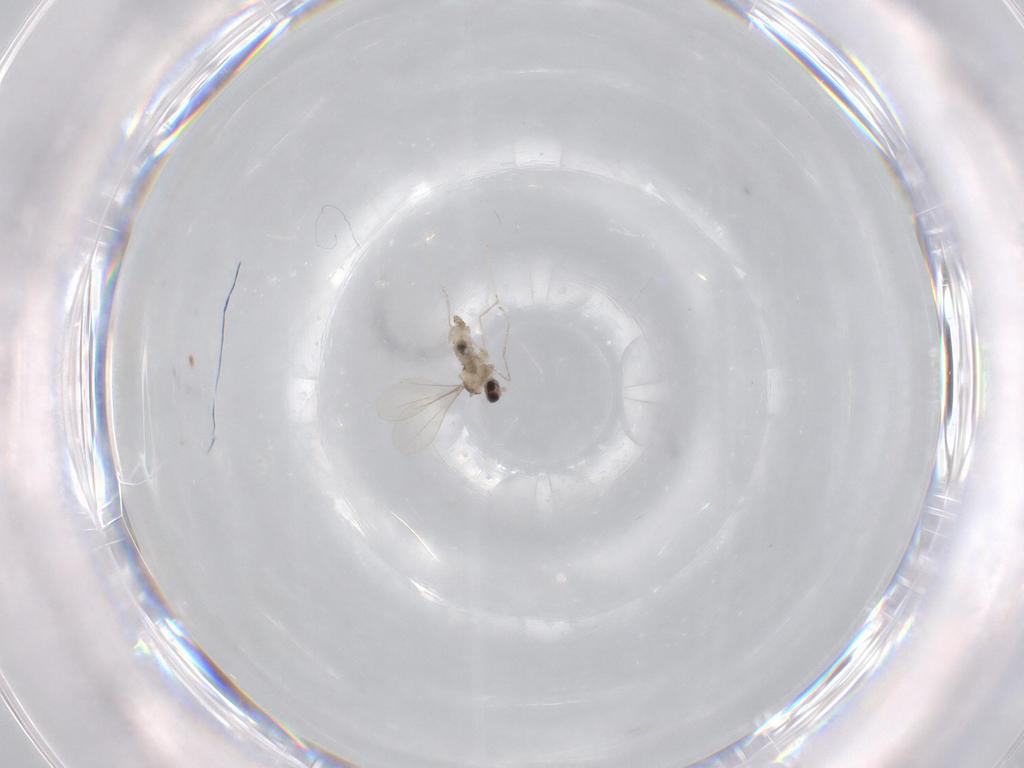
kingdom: Animalia
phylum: Arthropoda
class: Insecta
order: Diptera
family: Cecidomyiidae
